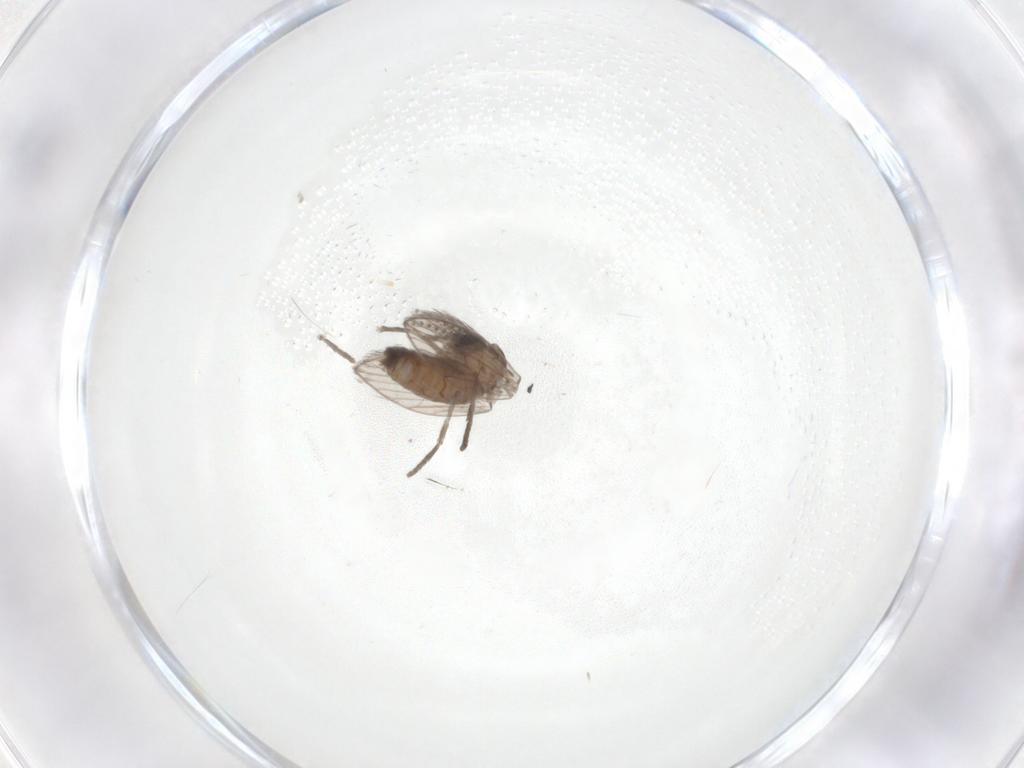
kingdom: Animalia
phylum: Arthropoda
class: Insecta
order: Diptera
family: Psychodidae
